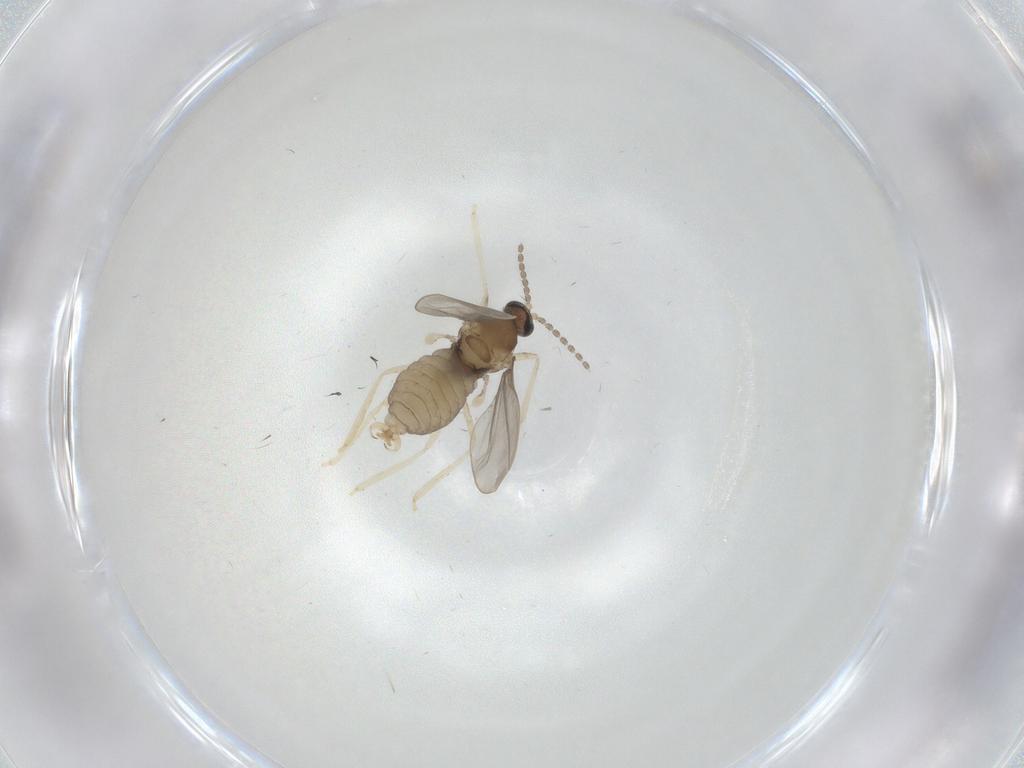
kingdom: Animalia
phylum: Arthropoda
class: Insecta
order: Diptera
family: Cecidomyiidae
